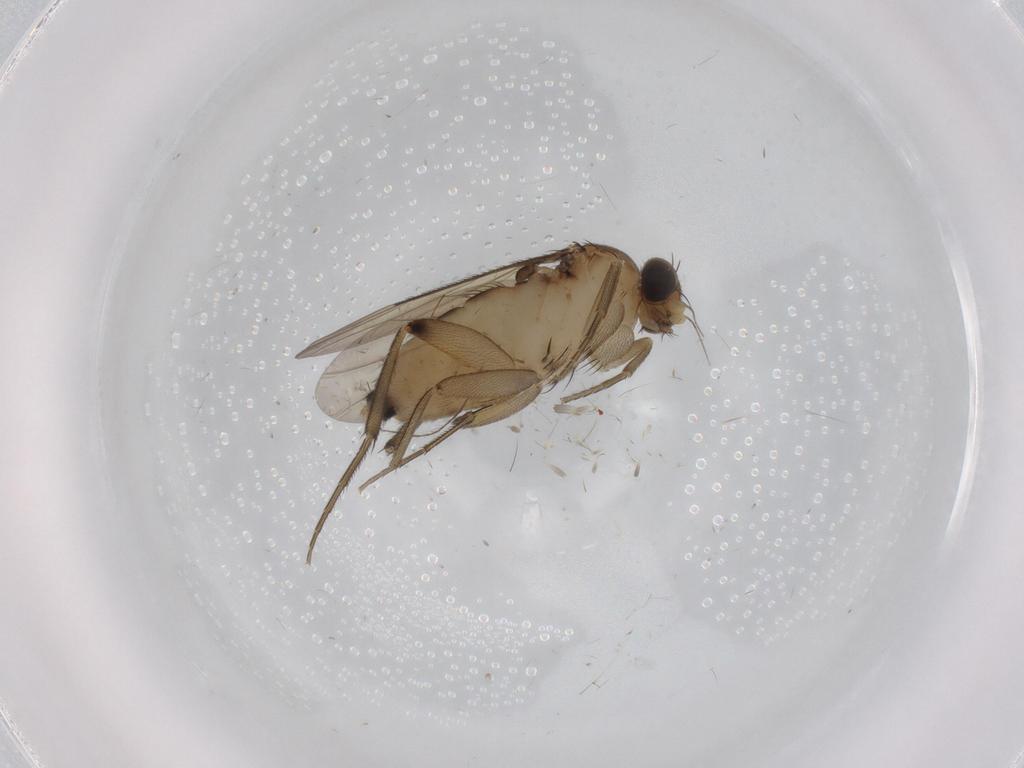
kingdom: Animalia
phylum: Arthropoda
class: Insecta
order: Diptera
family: Phoridae
